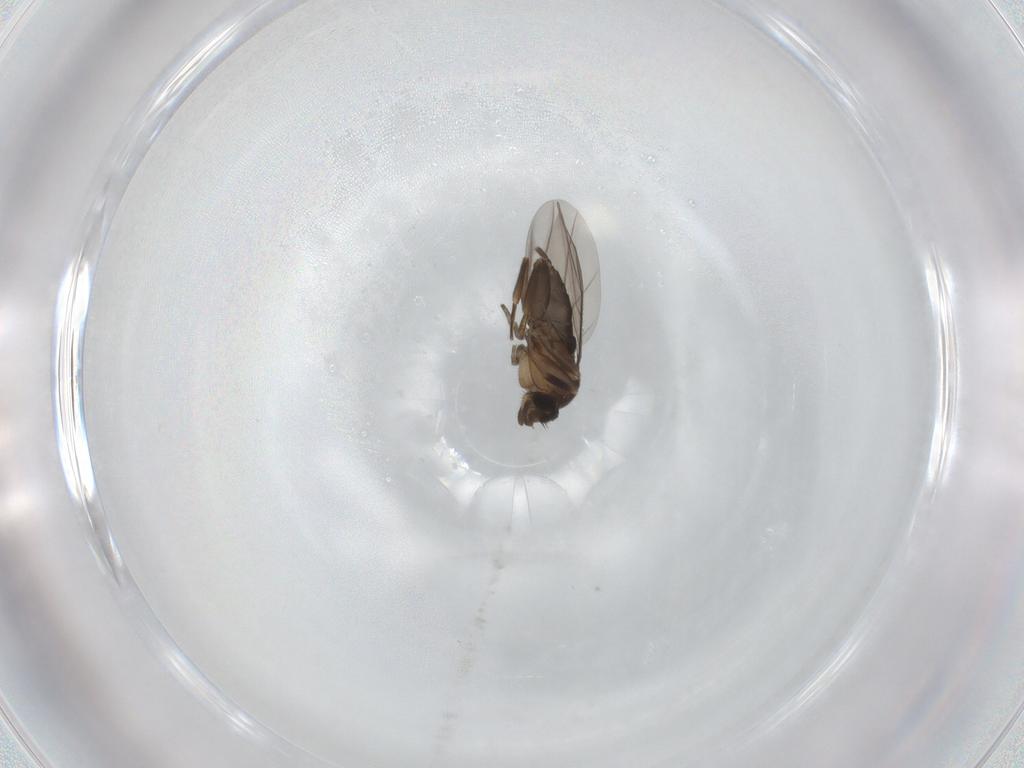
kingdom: Animalia
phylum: Arthropoda
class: Insecta
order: Diptera
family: Phoridae
